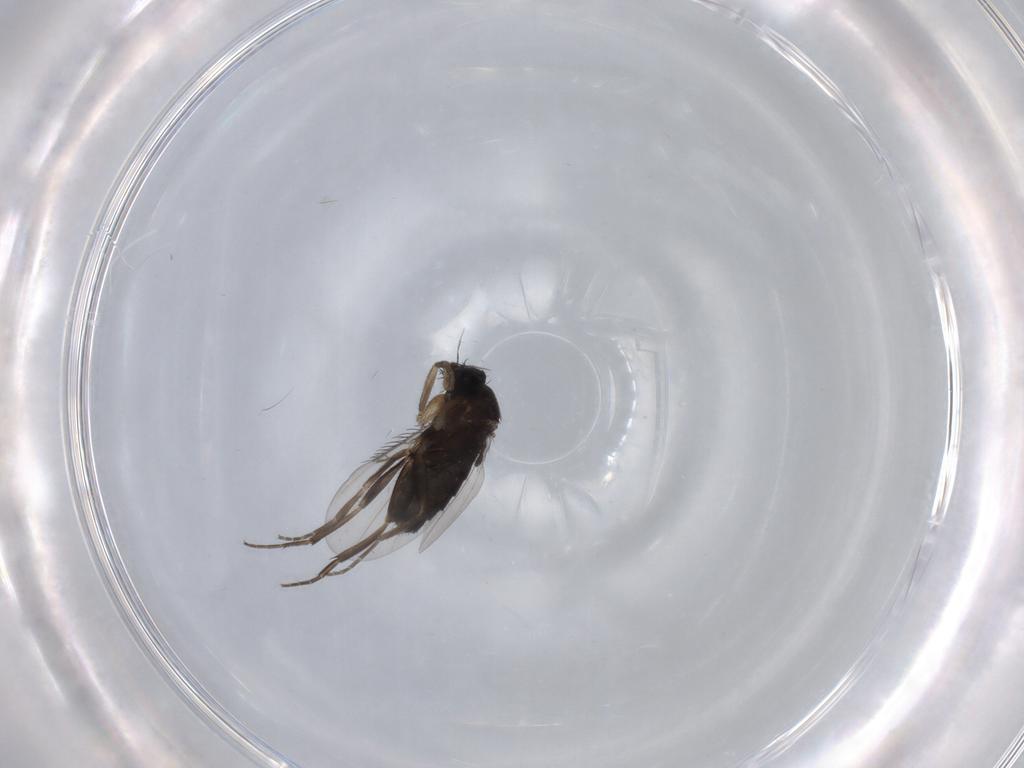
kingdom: Animalia
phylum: Arthropoda
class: Insecta
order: Diptera
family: Phoridae
